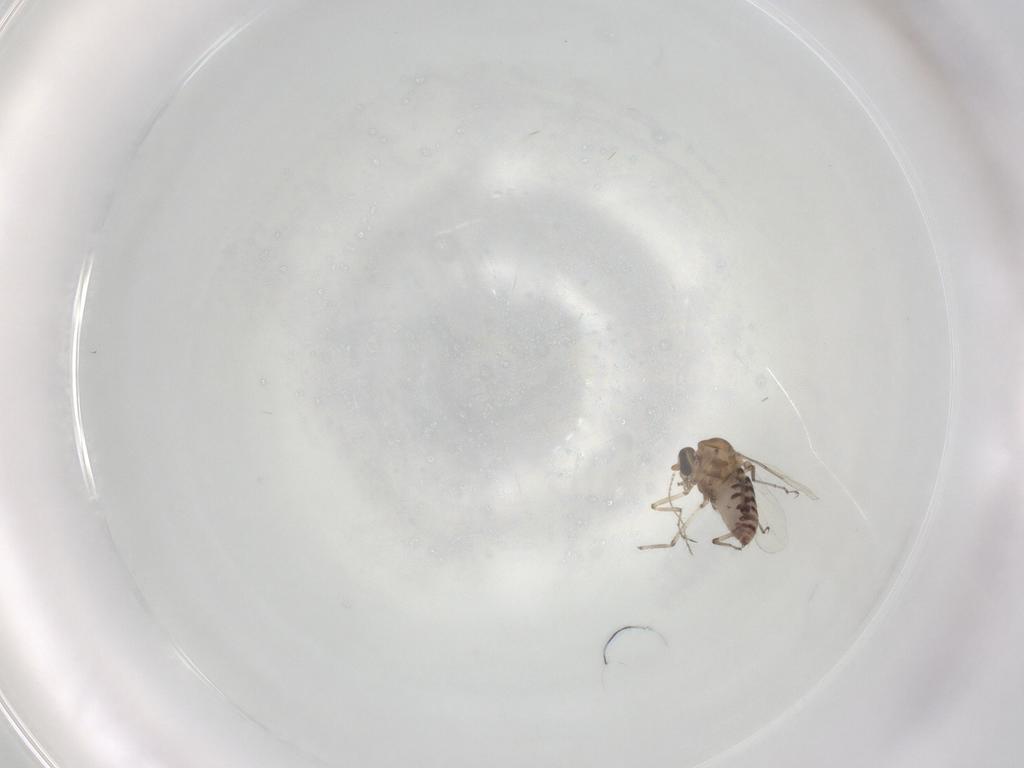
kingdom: Animalia
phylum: Arthropoda
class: Insecta
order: Diptera
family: Ceratopogonidae
